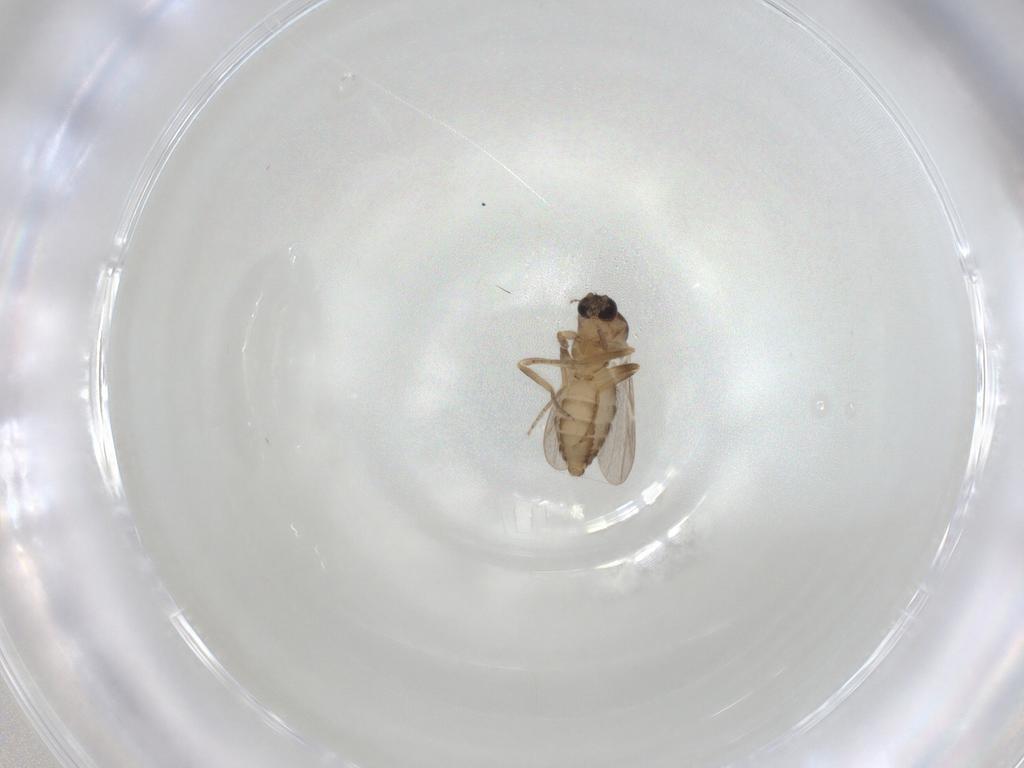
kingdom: Animalia
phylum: Arthropoda
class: Insecta
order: Diptera
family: Ceratopogonidae
